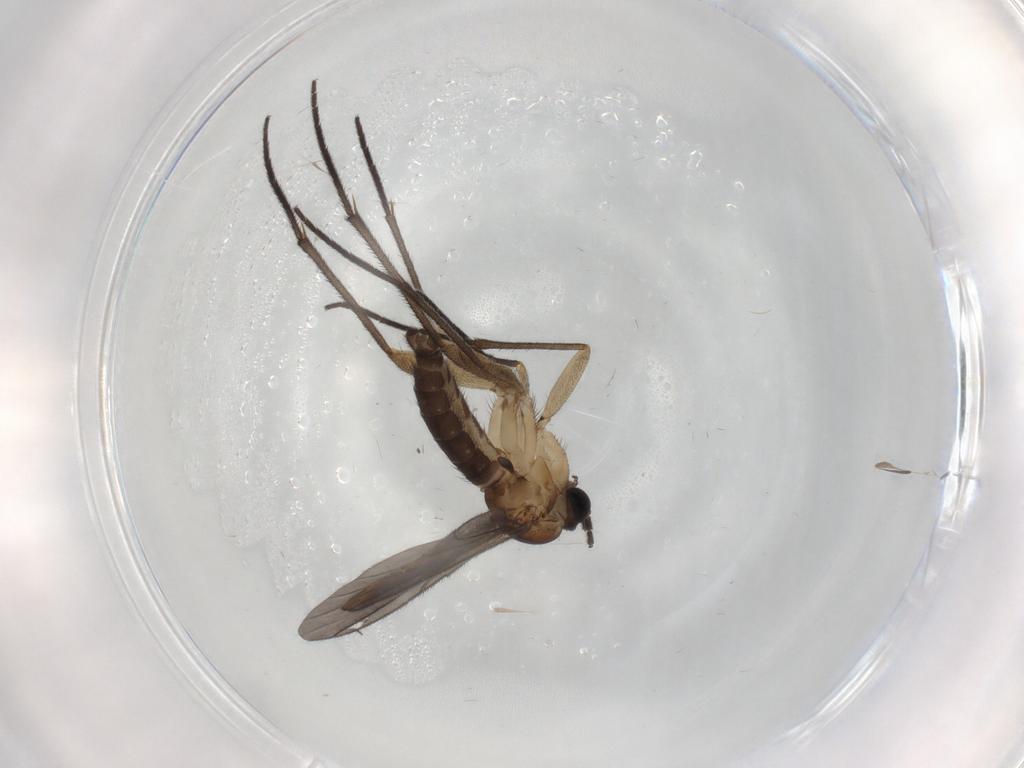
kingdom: Animalia
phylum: Arthropoda
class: Insecta
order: Diptera
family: Sciaridae
